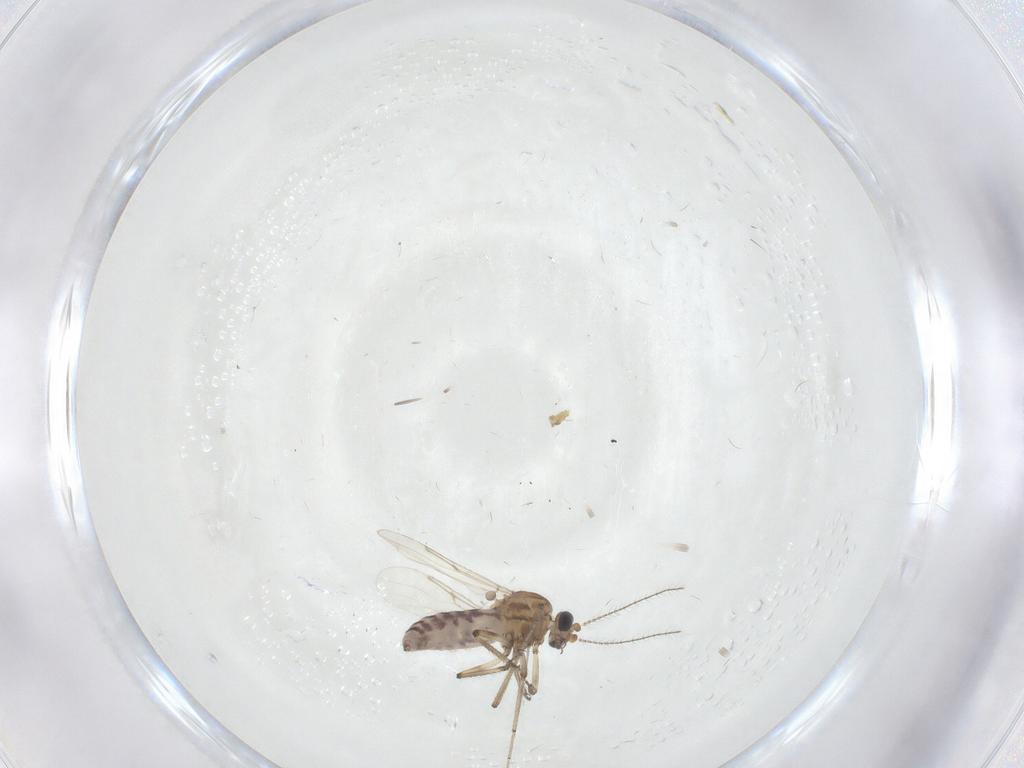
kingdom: Animalia
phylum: Arthropoda
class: Insecta
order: Diptera
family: Ceratopogonidae
